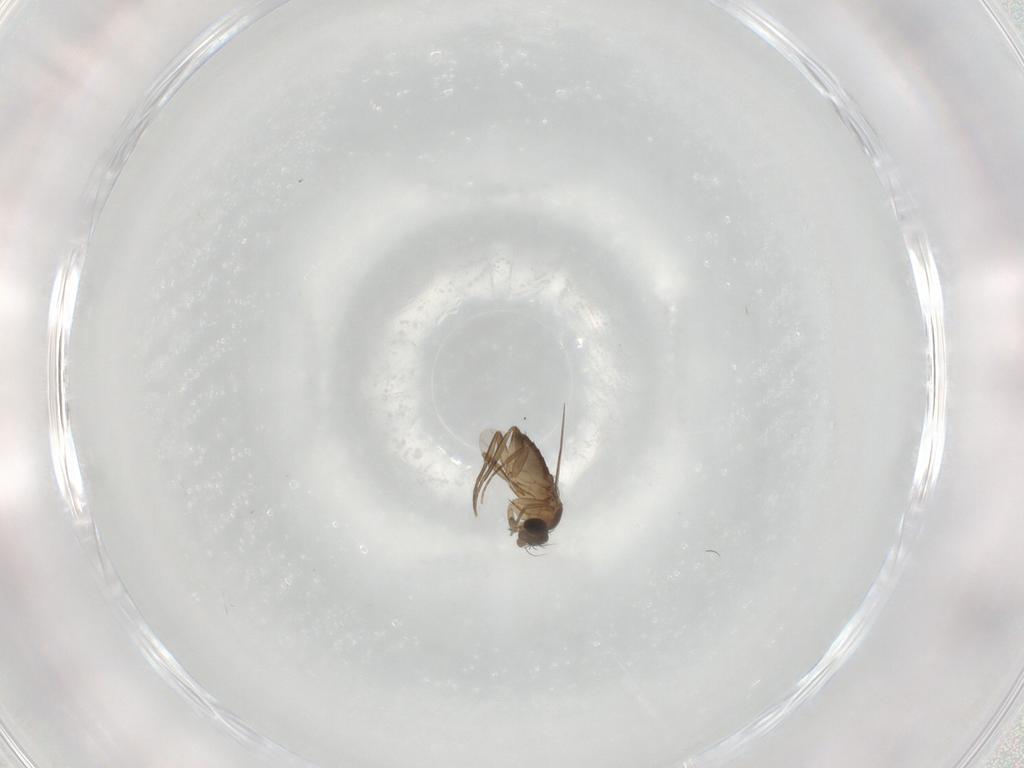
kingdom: Animalia
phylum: Arthropoda
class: Insecta
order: Diptera
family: Phoridae
